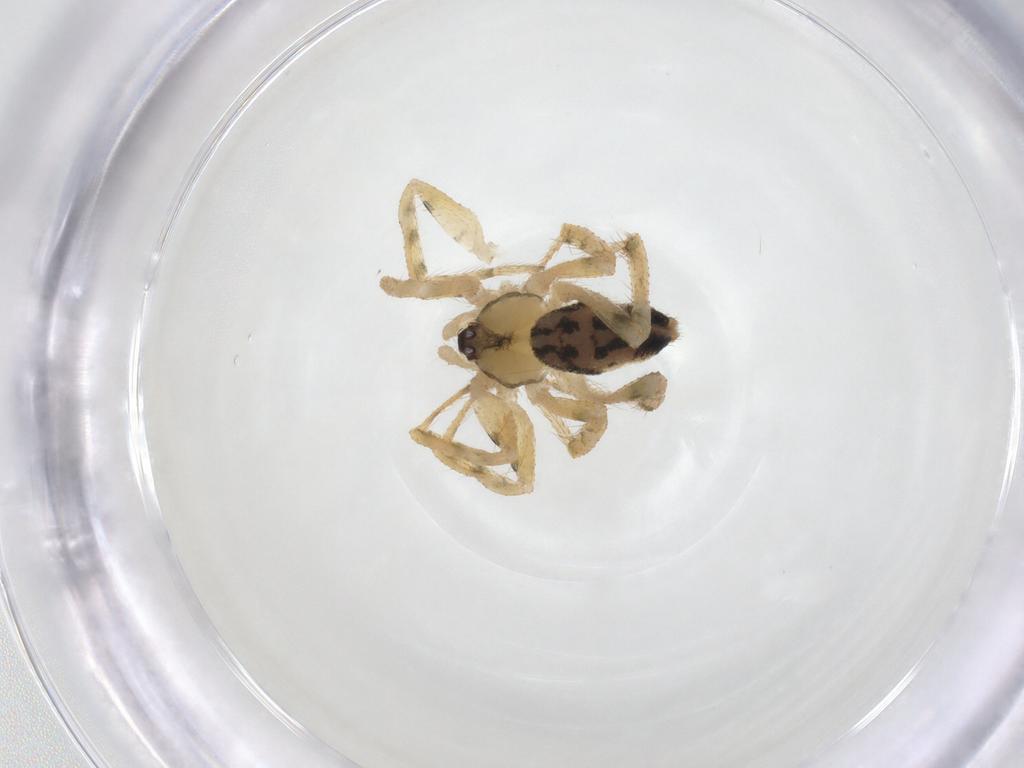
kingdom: Animalia
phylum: Arthropoda
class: Arachnida
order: Araneae
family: Theridiidae
